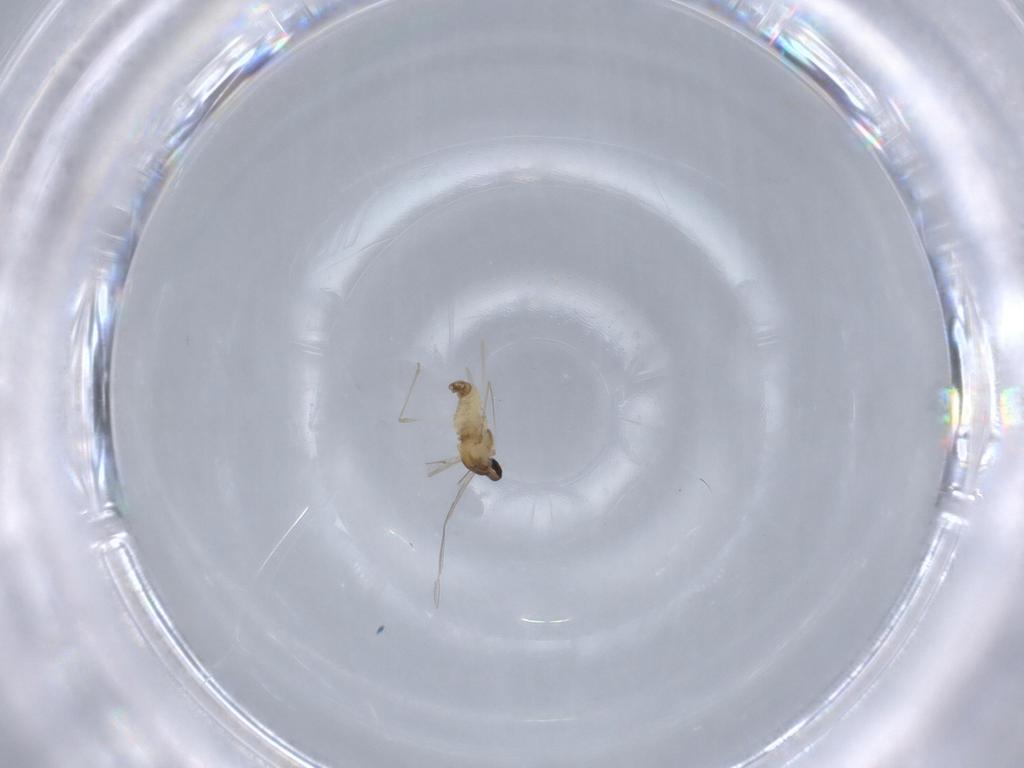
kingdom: Animalia
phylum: Arthropoda
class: Insecta
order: Diptera
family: Cecidomyiidae
